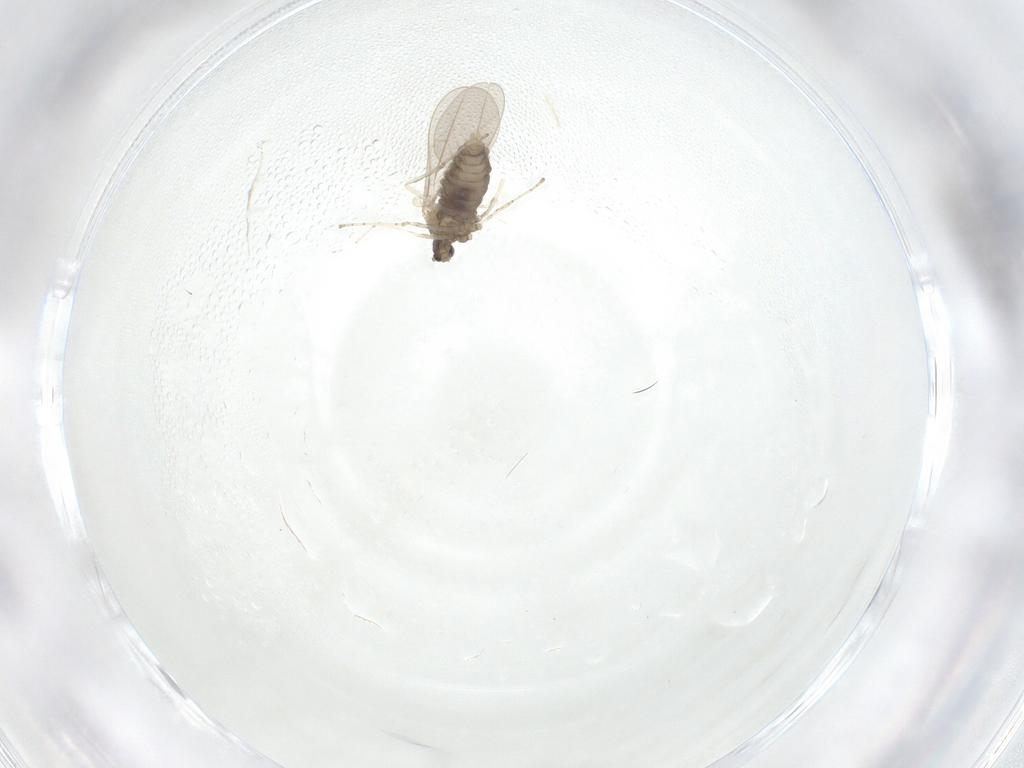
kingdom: Animalia
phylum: Arthropoda
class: Insecta
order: Diptera
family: Cecidomyiidae
